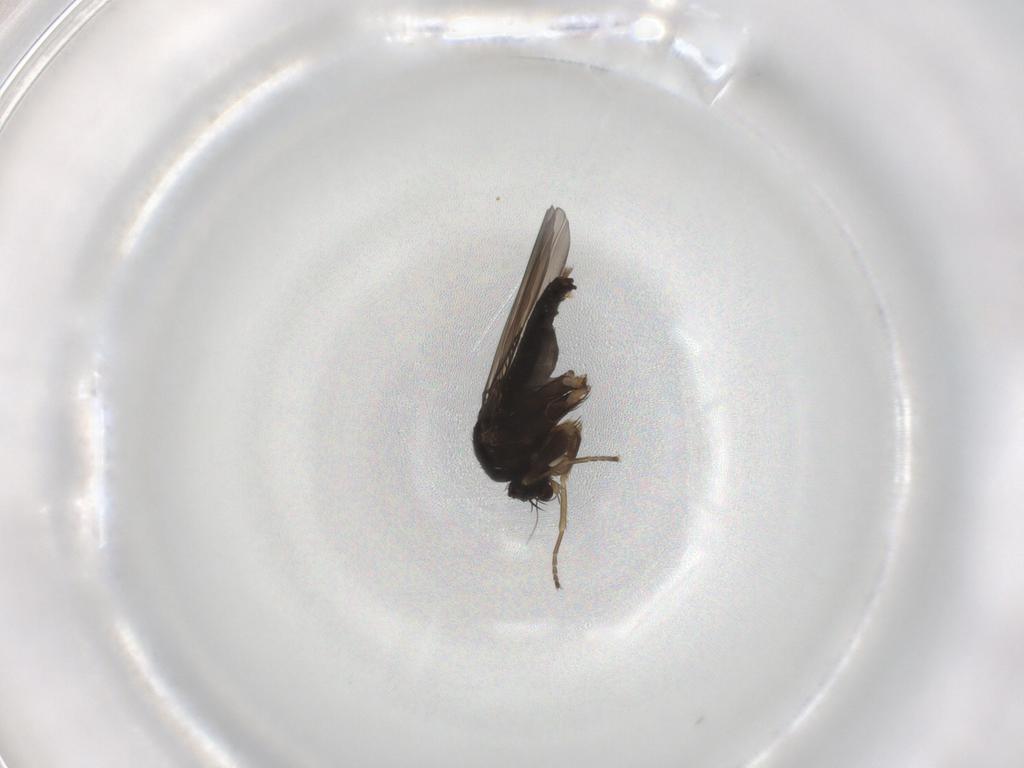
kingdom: Animalia
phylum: Arthropoda
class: Insecta
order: Diptera
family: Phoridae
